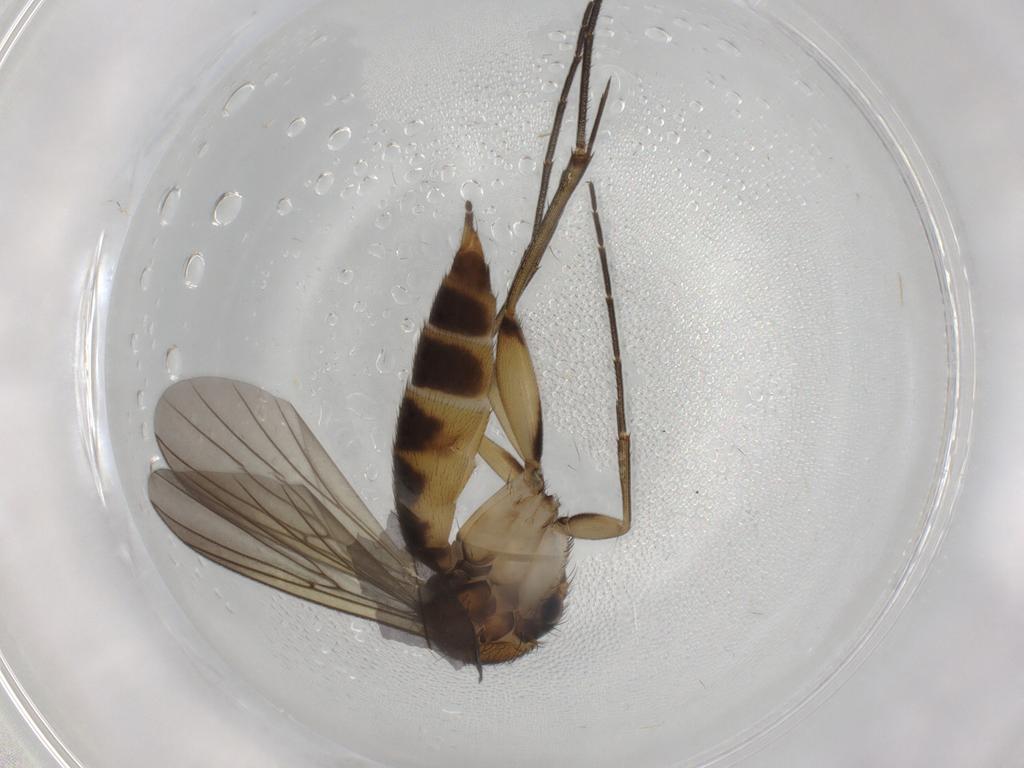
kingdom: Animalia
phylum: Arthropoda
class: Insecta
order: Diptera
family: Mycetophilidae
